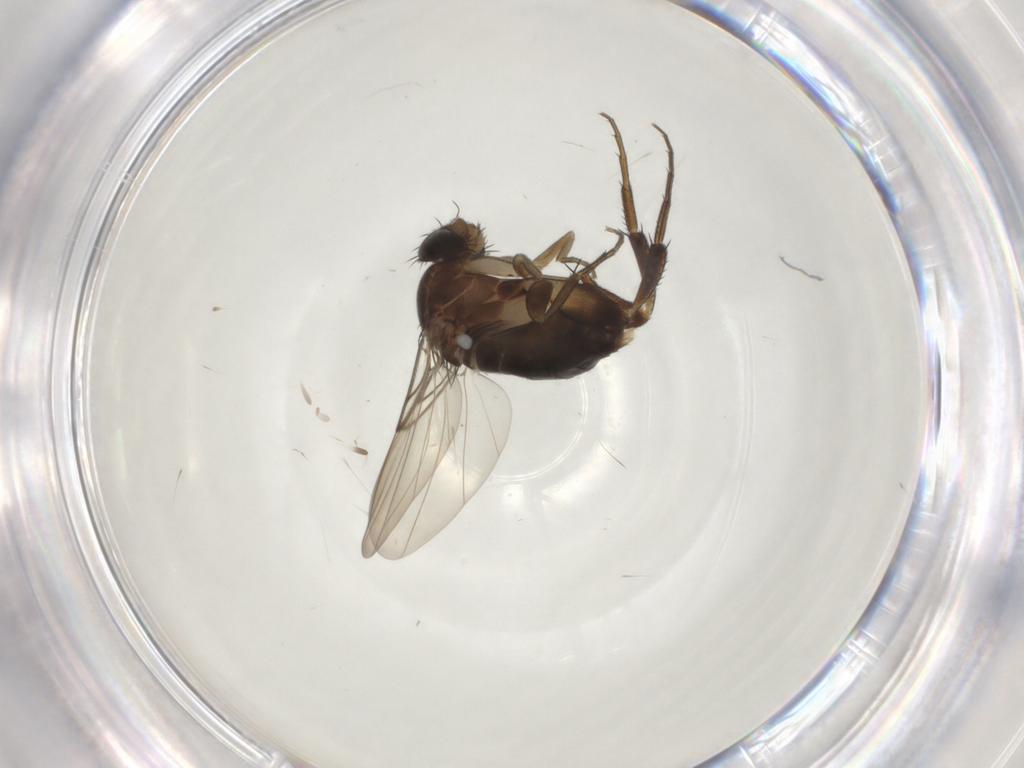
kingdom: Animalia
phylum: Arthropoda
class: Insecta
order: Diptera
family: Phoridae
